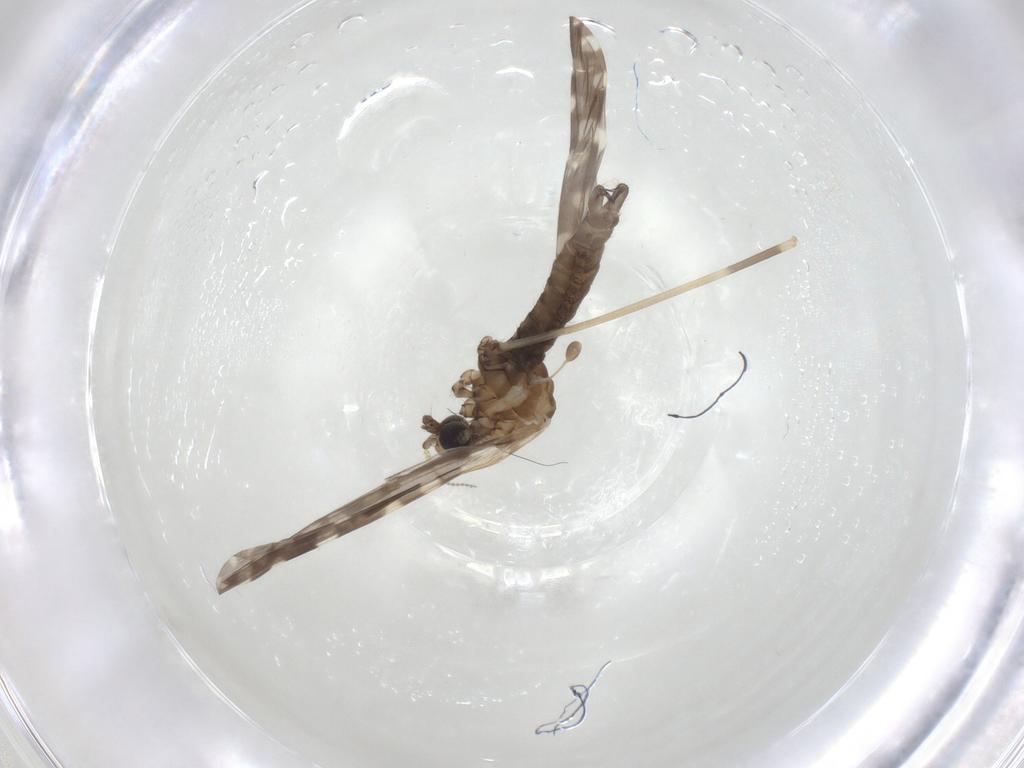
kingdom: Animalia
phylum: Arthropoda
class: Insecta
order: Diptera
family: Limoniidae
